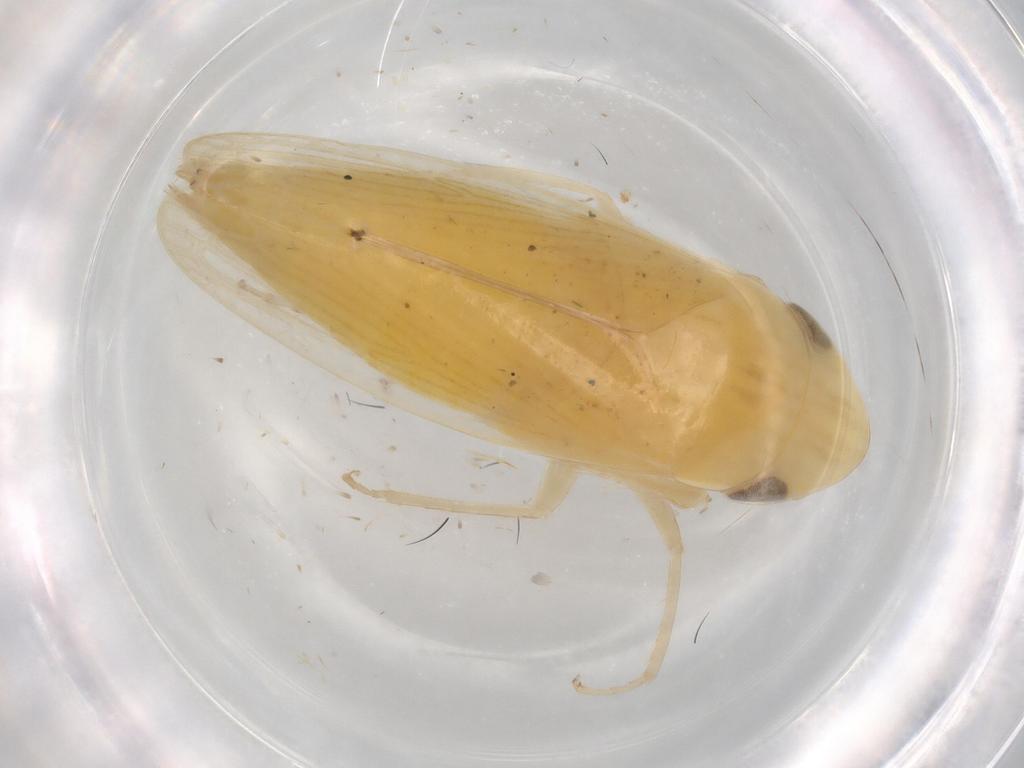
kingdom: Animalia
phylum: Arthropoda
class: Insecta
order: Hemiptera
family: Cicadellidae
